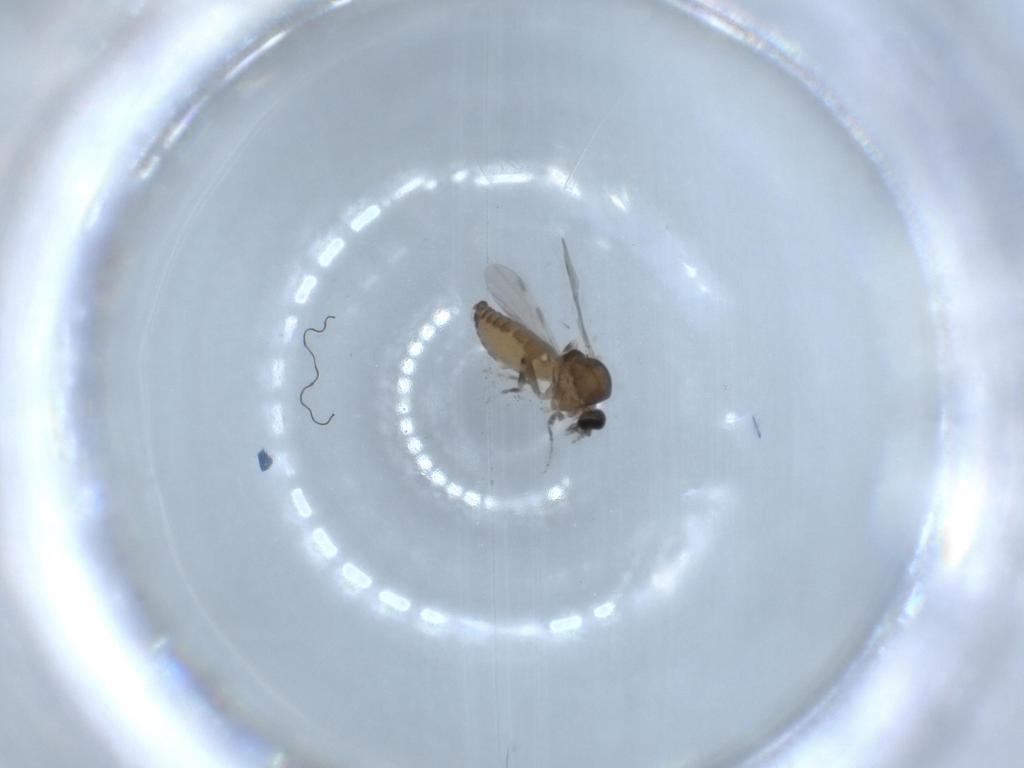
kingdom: Animalia
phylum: Arthropoda
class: Insecta
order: Diptera
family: Ceratopogonidae
